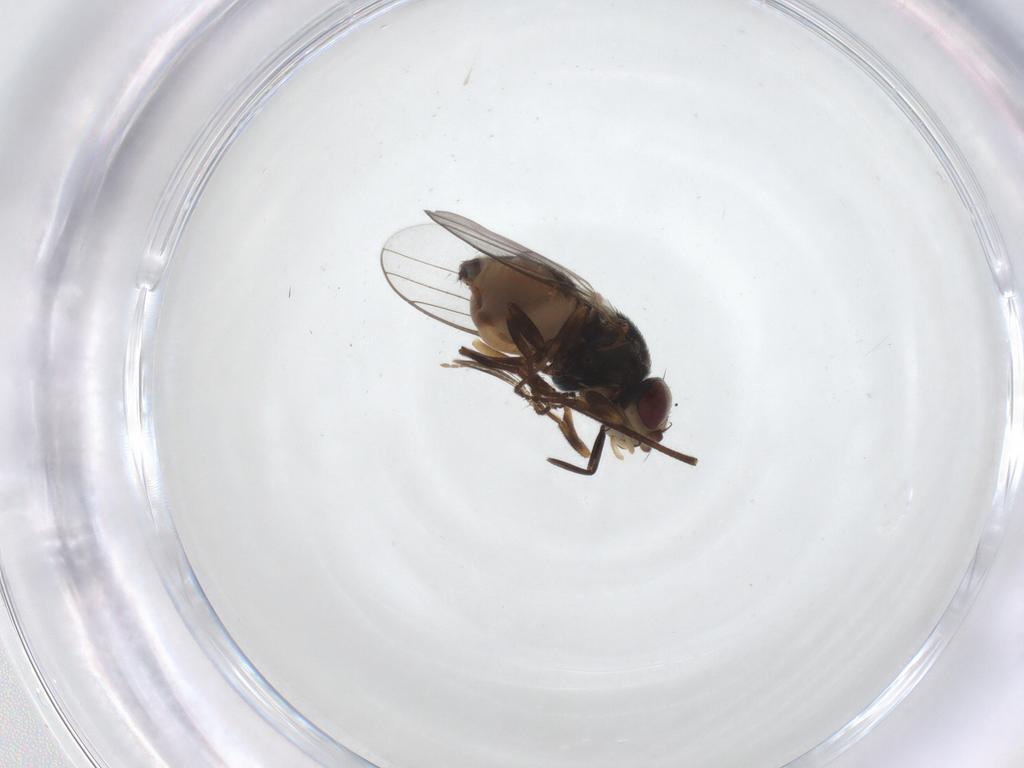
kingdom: Animalia
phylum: Arthropoda
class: Insecta
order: Diptera
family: Chloropidae
